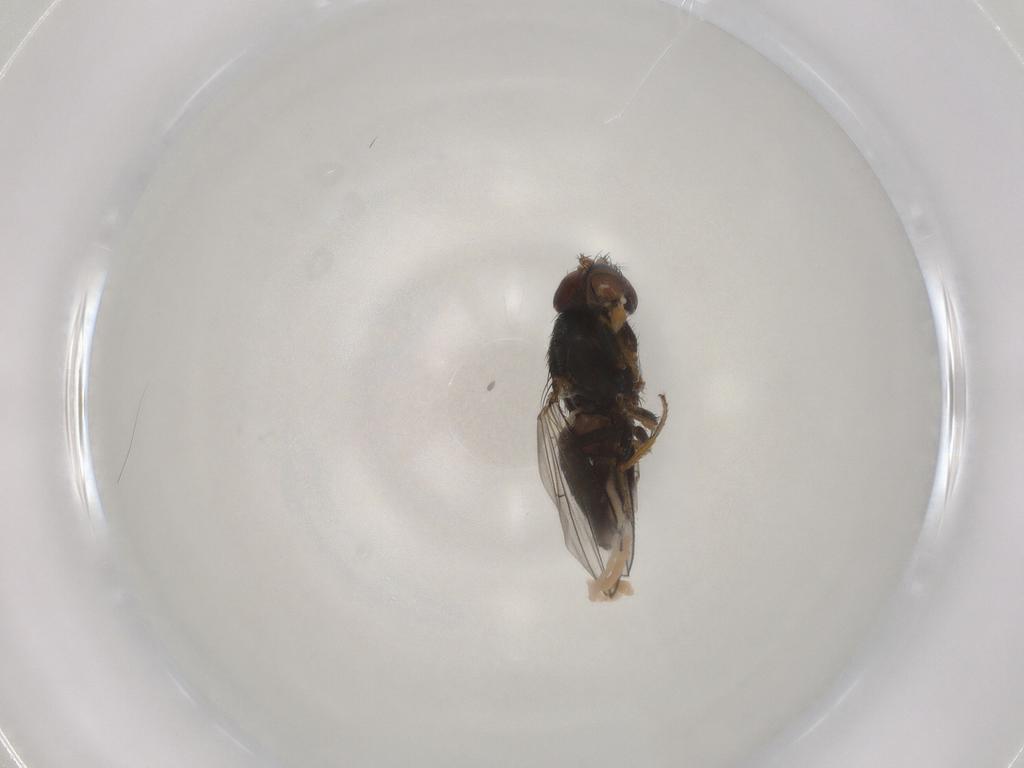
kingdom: Animalia
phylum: Arthropoda
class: Insecta
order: Diptera
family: Ephydridae
